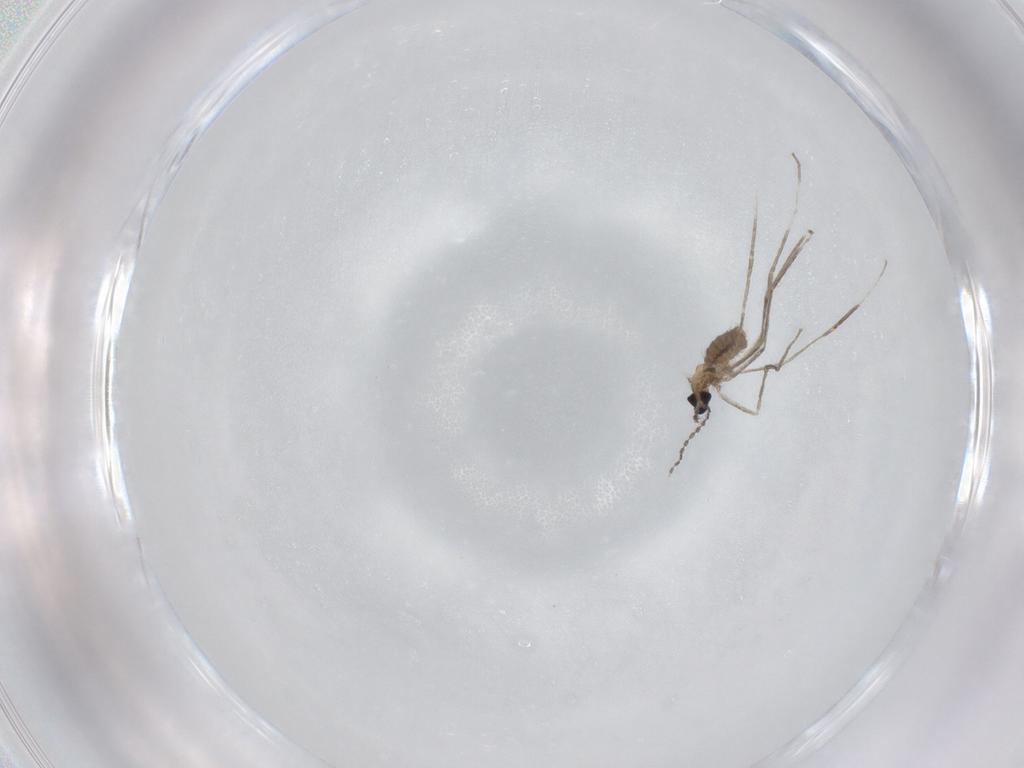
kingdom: Animalia
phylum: Arthropoda
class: Insecta
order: Diptera
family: Cecidomyiidae
